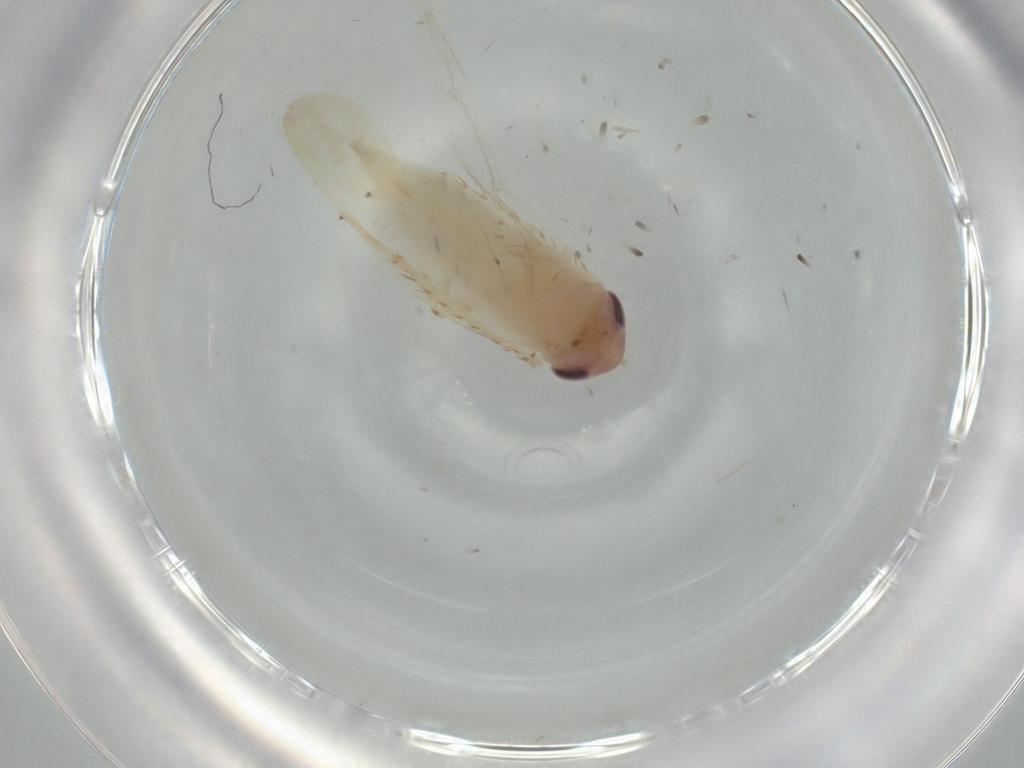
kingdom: Animalia
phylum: Arthropoda
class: Insecta
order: Hemiptera
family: Cicadellidae
